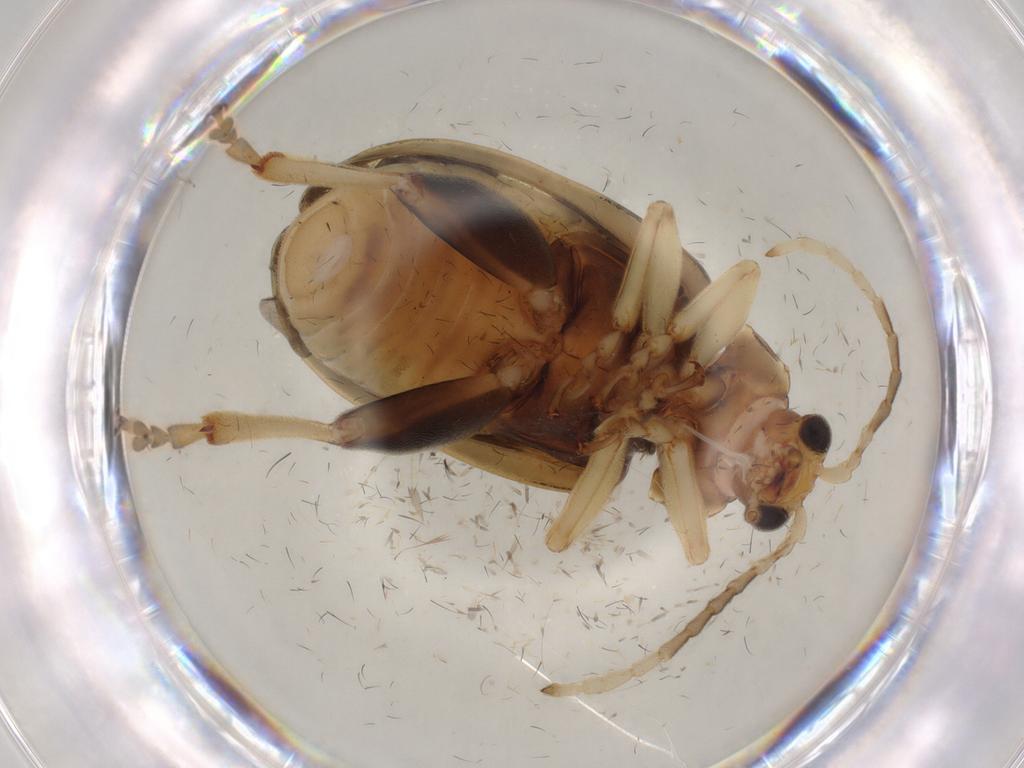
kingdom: Animalia
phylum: Arthropoda
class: Insecta
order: Coleoptera
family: Chrysomelidae
